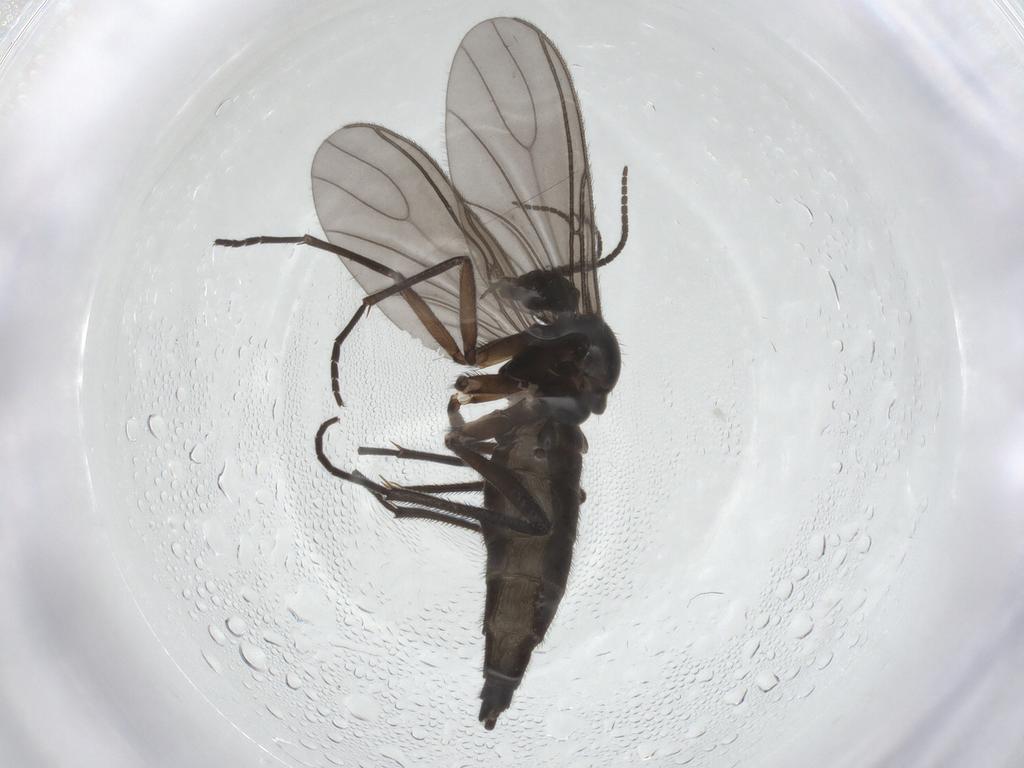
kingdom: Animalia
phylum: Arthropoda
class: Insecta
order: Diptera
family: Sciaridae
